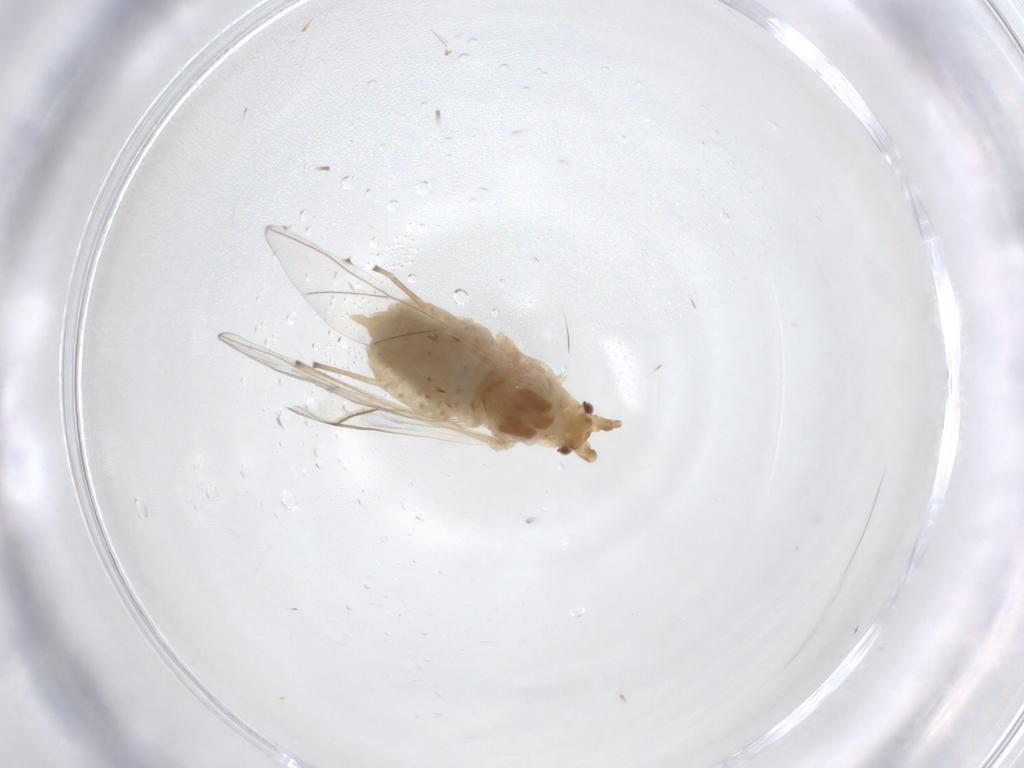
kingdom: Animalia
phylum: Arthropoda
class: Insecta
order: Hemiptera
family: Aphididae
